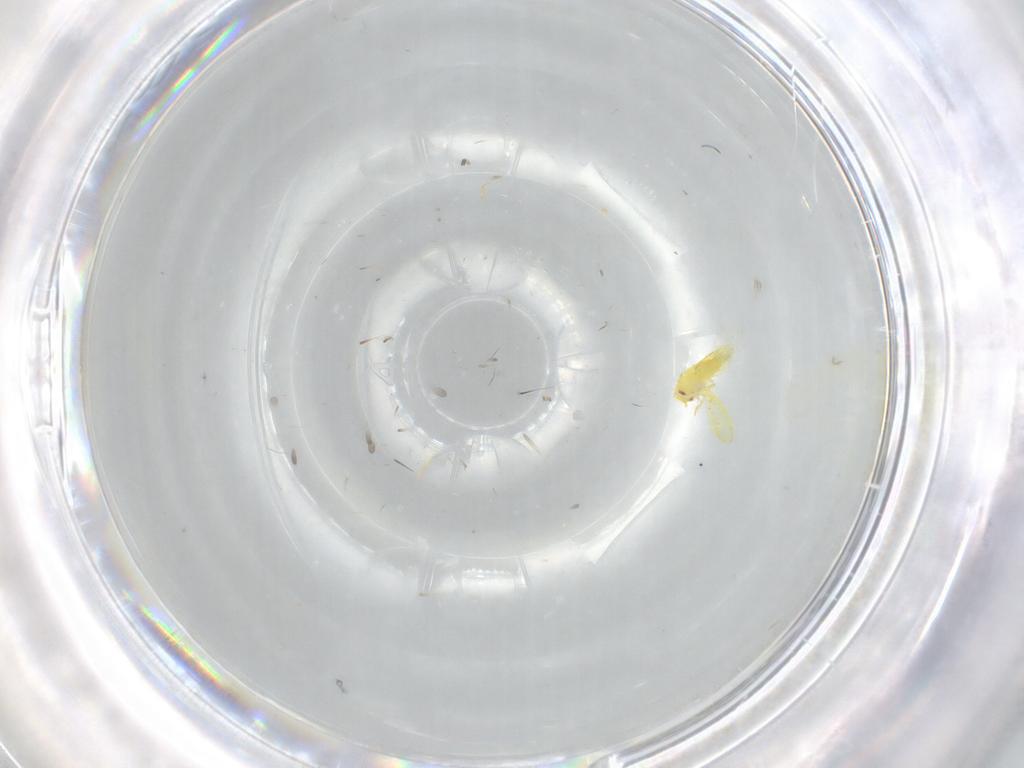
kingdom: Animalia
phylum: Arthropoda
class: Insecta
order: Hemiptera
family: Aleyrodidae
